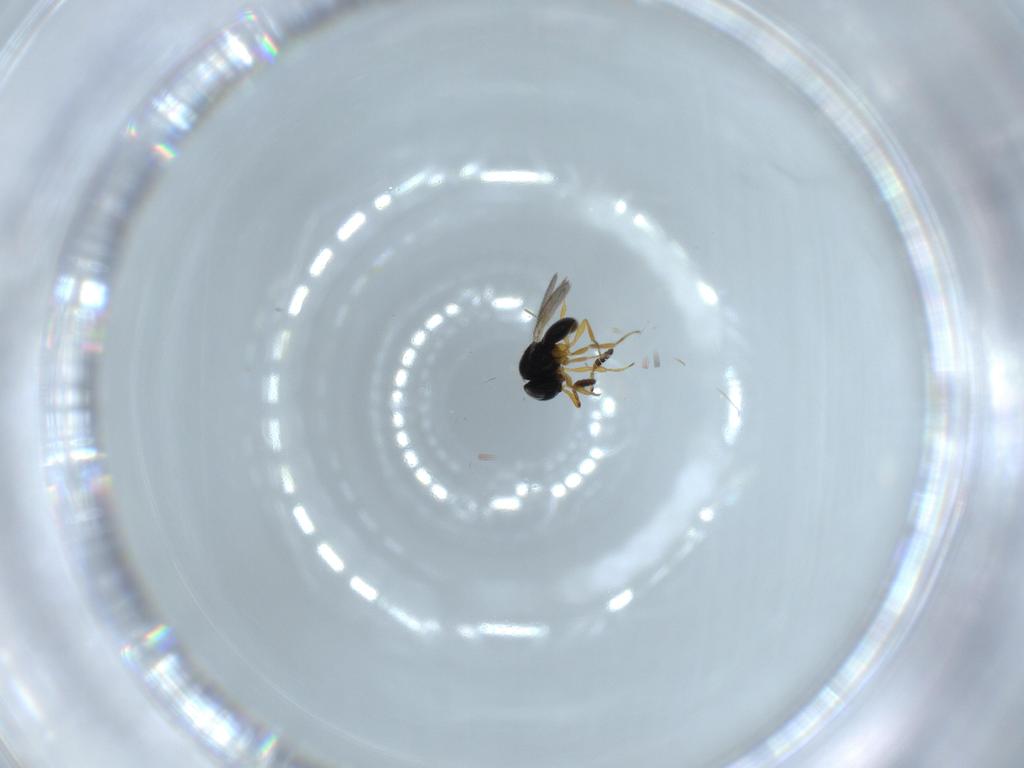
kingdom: Animalia
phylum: Arthropoda
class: Insecta
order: Hymenoptera
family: Scelionidae
